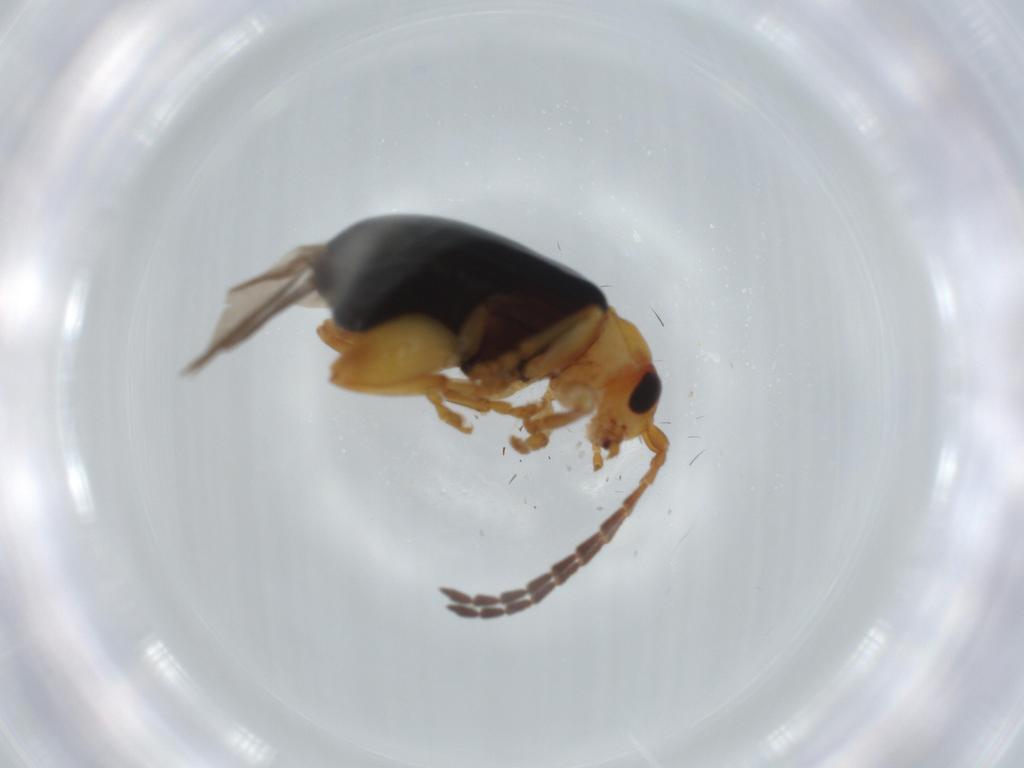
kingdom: Animalia
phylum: Arthropoda
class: Insecta
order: Coleoptera
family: Chrysomelidae
